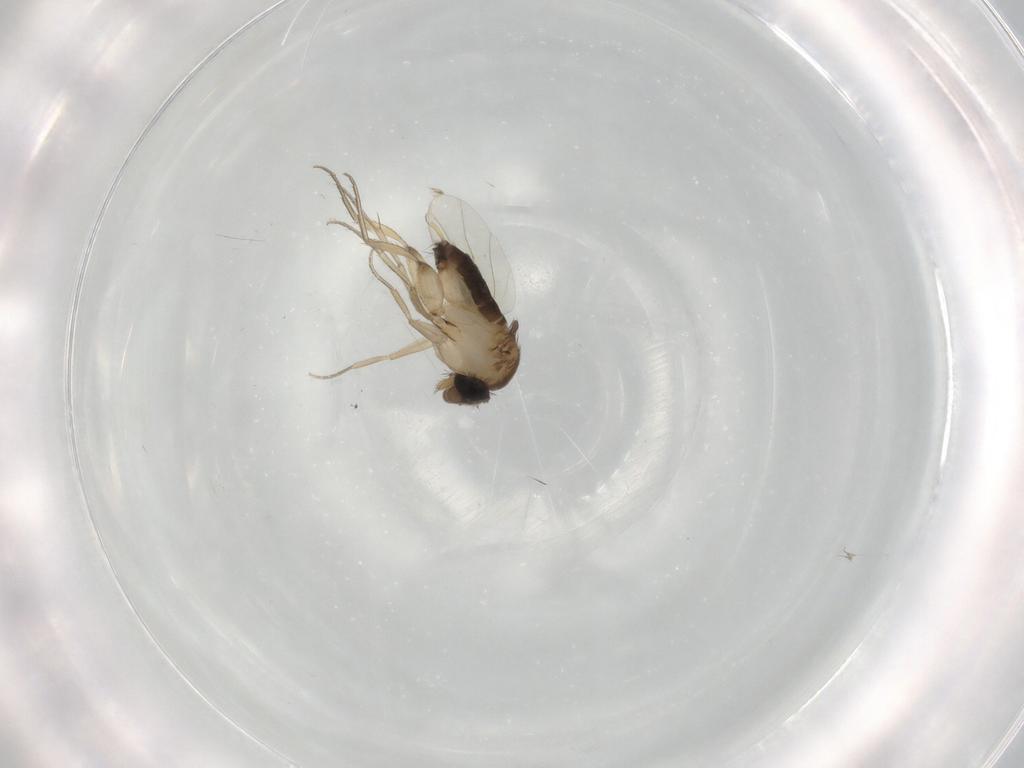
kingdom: Animalia
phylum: Arthropoda
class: Insecta
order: Diptera
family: Phoridae
